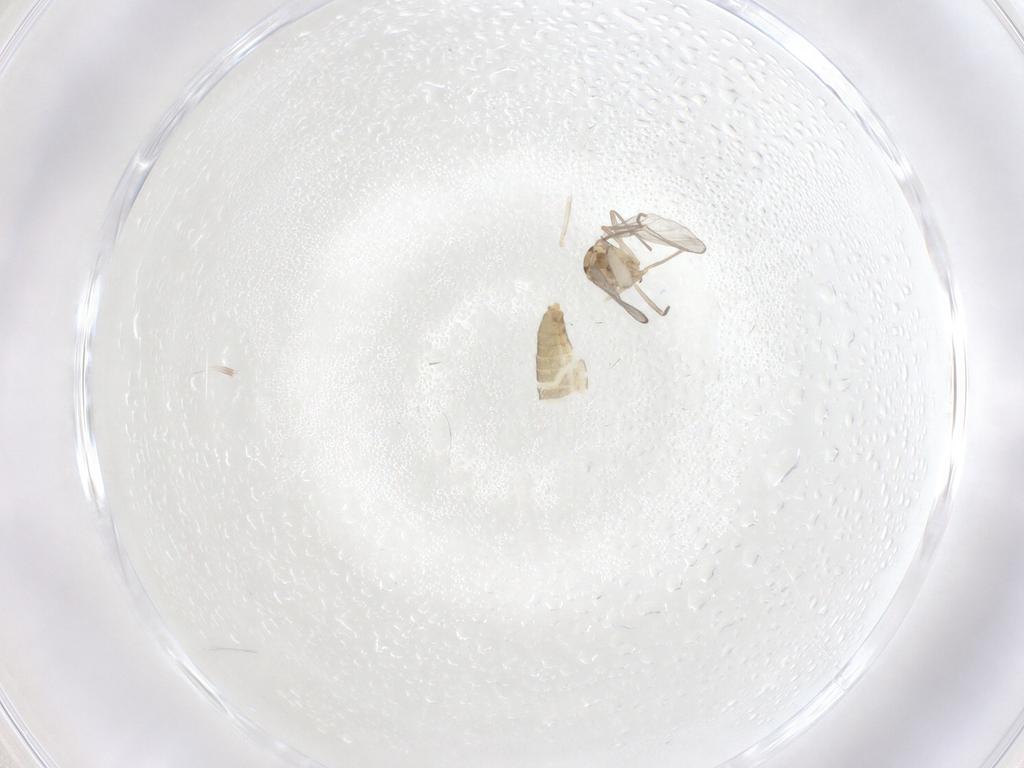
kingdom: Animalia
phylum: Arthropoda
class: Insecta
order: Diptera
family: Chironomidae
